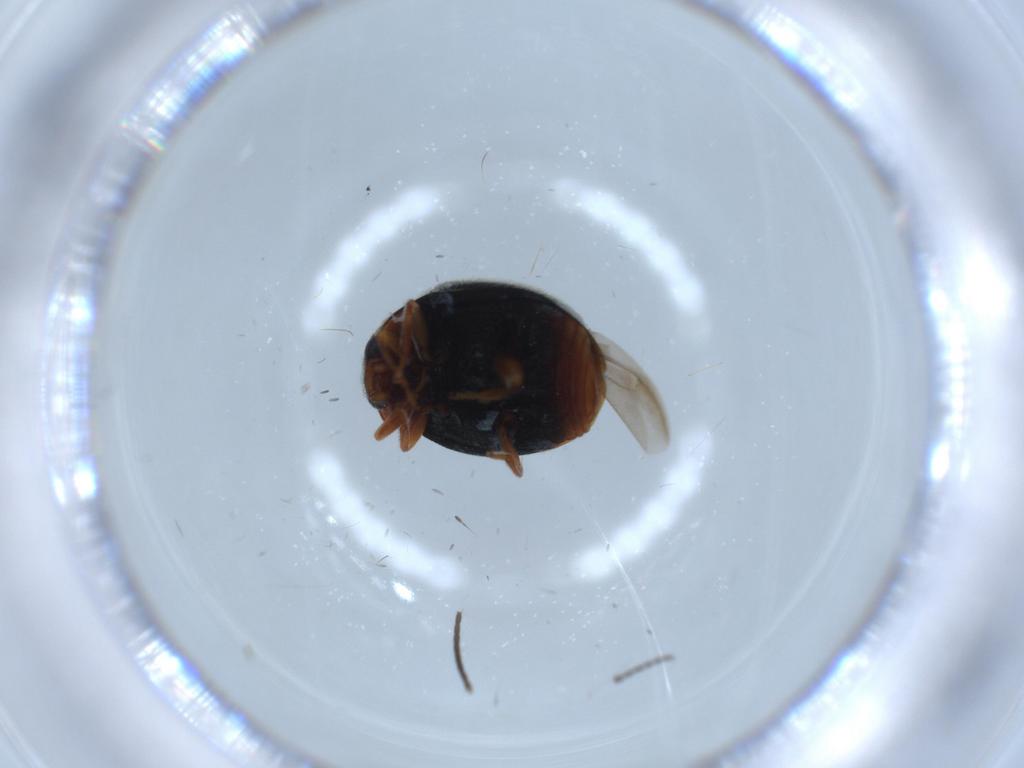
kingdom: Animalia
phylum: Arthropoda
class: Insecta
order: Coleoptera
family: Coccinellidae
